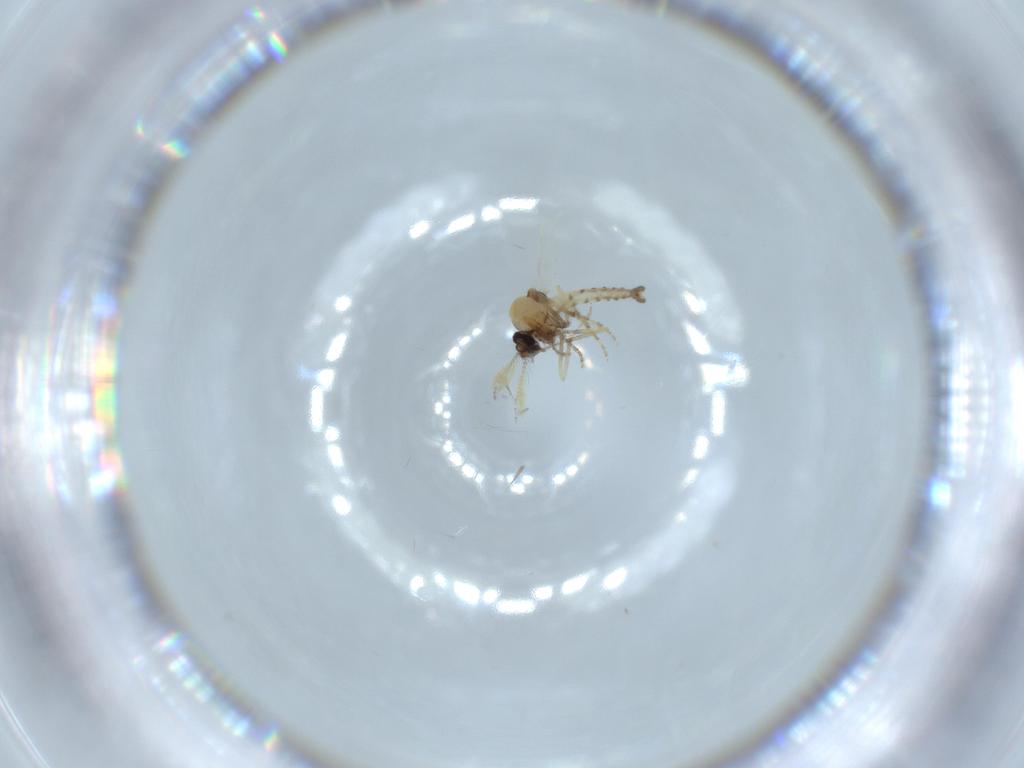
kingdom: Animalia
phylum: Arthropoda
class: Insecta
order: Diptera
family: Ceratopogonidae
